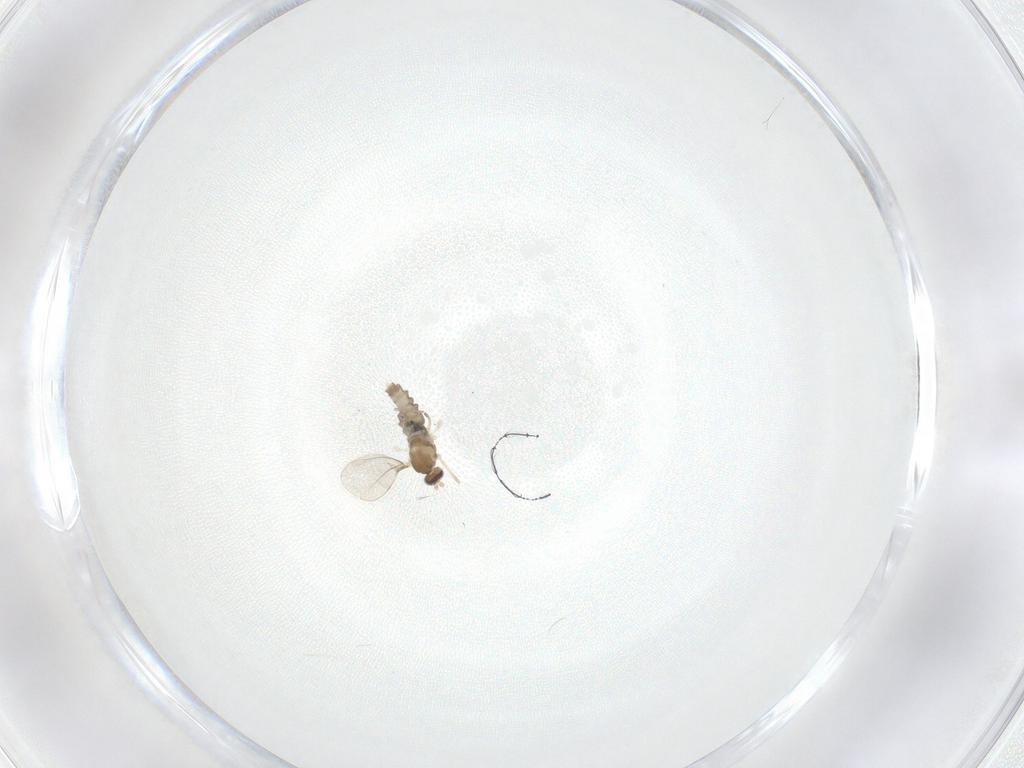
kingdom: Animalia
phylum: Arthropoda
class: Insecta
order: Diptera
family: Cecidomyiidae
